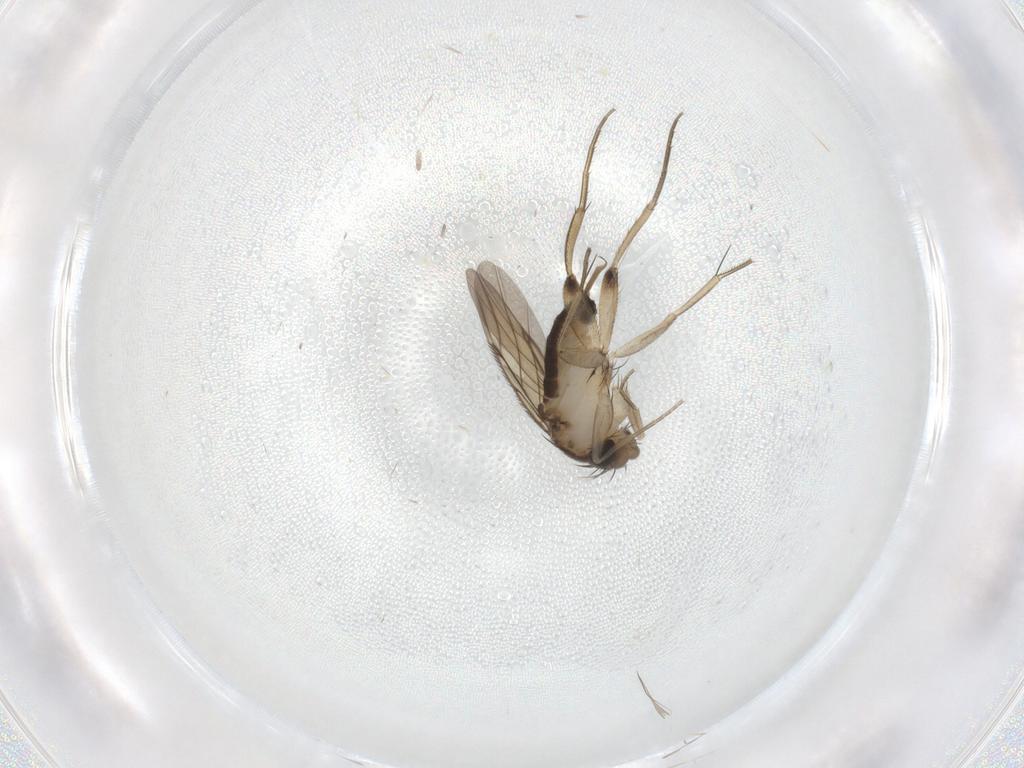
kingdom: Animalia
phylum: Arthropoda
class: Insecta
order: Diptera
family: Phoridae
